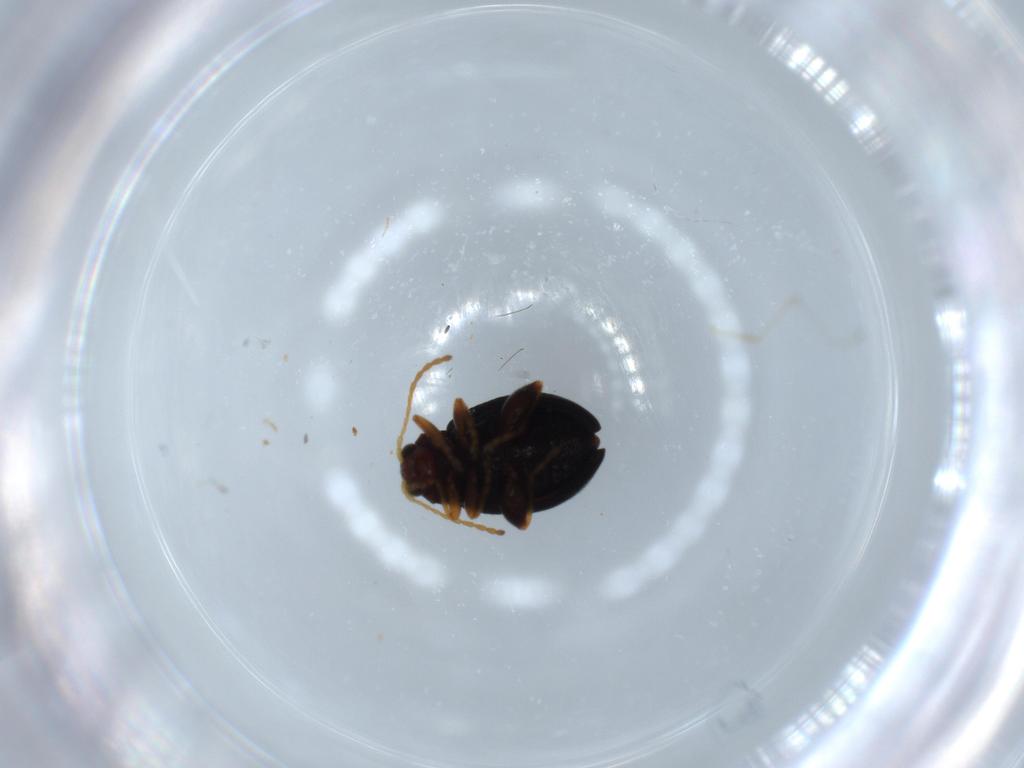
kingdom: Animalia
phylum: Arthropoda
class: Insecta
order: Coleoptera
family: Chrysomelidae
